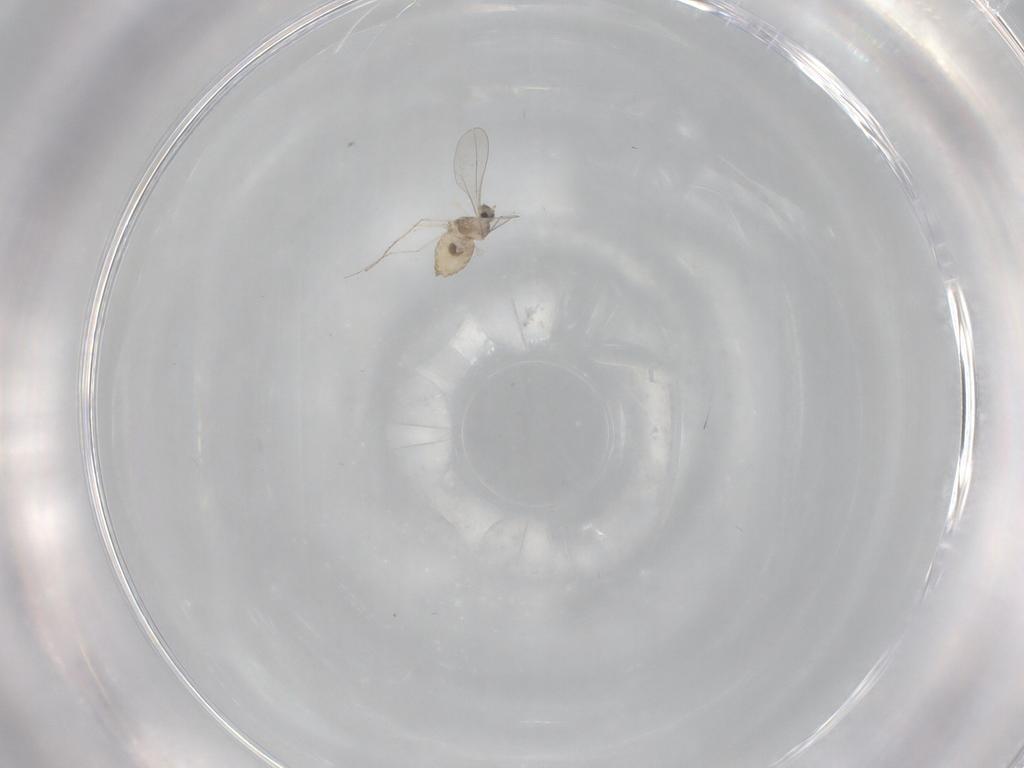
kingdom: Animalia
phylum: Arthropoda
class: Insecta
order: Diptera
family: Cecidomyiidae
